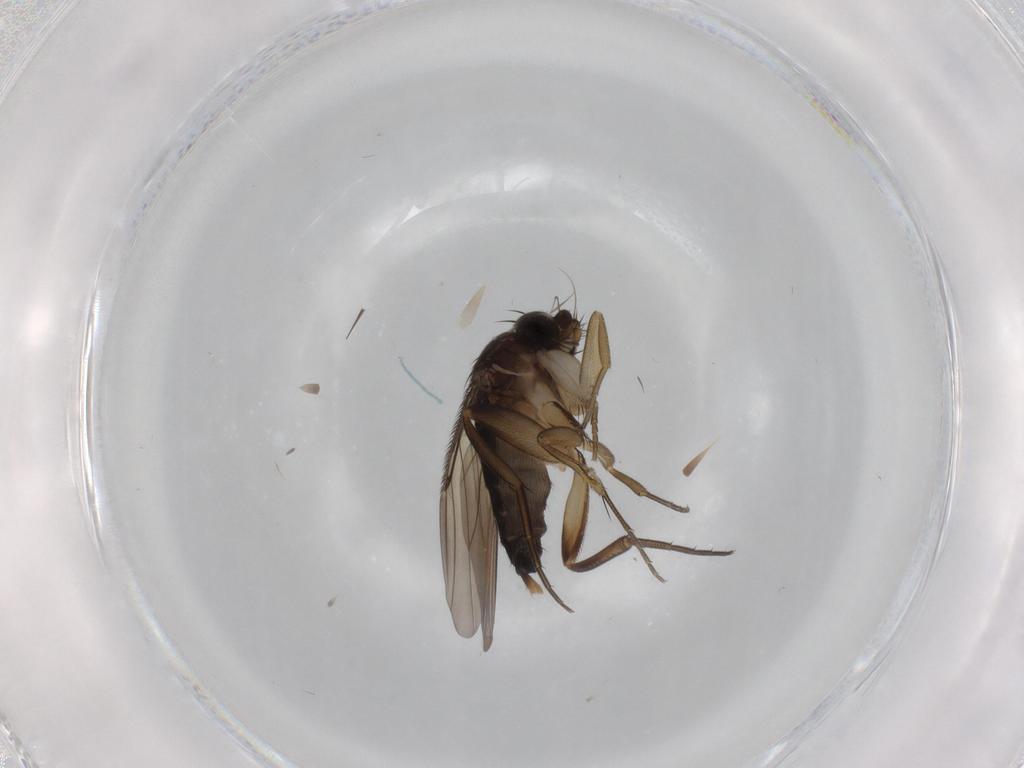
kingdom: Animalia
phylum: Arthropoda
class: Insecta
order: Diptera
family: Phoridae
